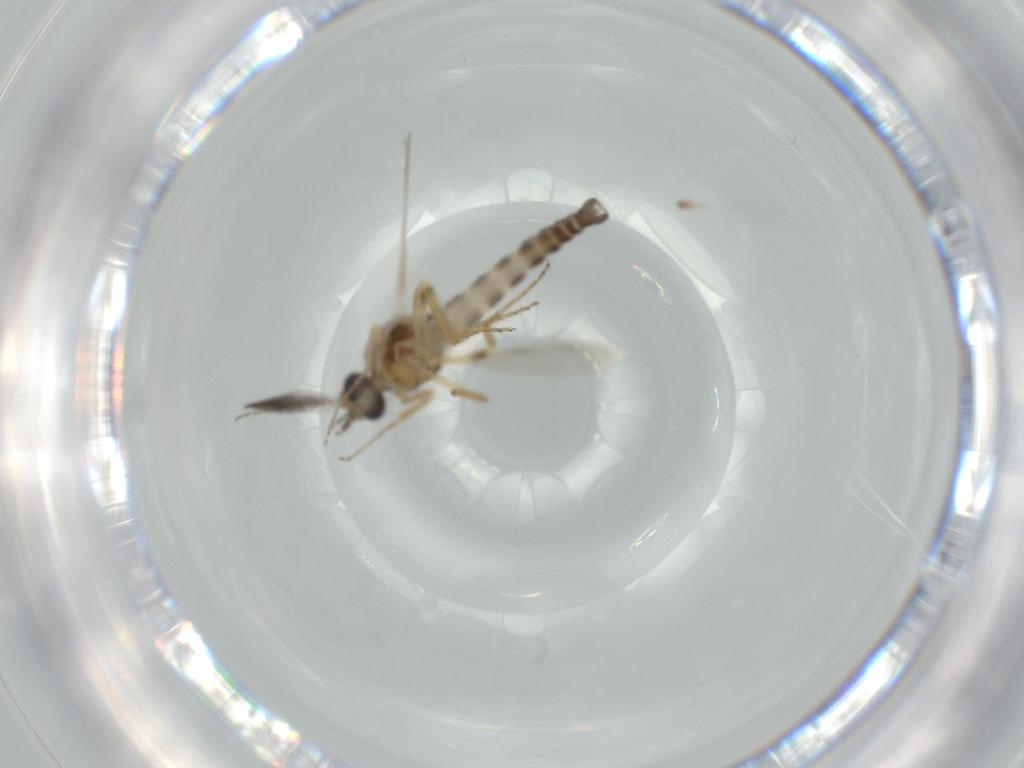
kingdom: Animalia
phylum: Arthropoda
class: Insecta
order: Diptera
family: Ceratopogonidae
